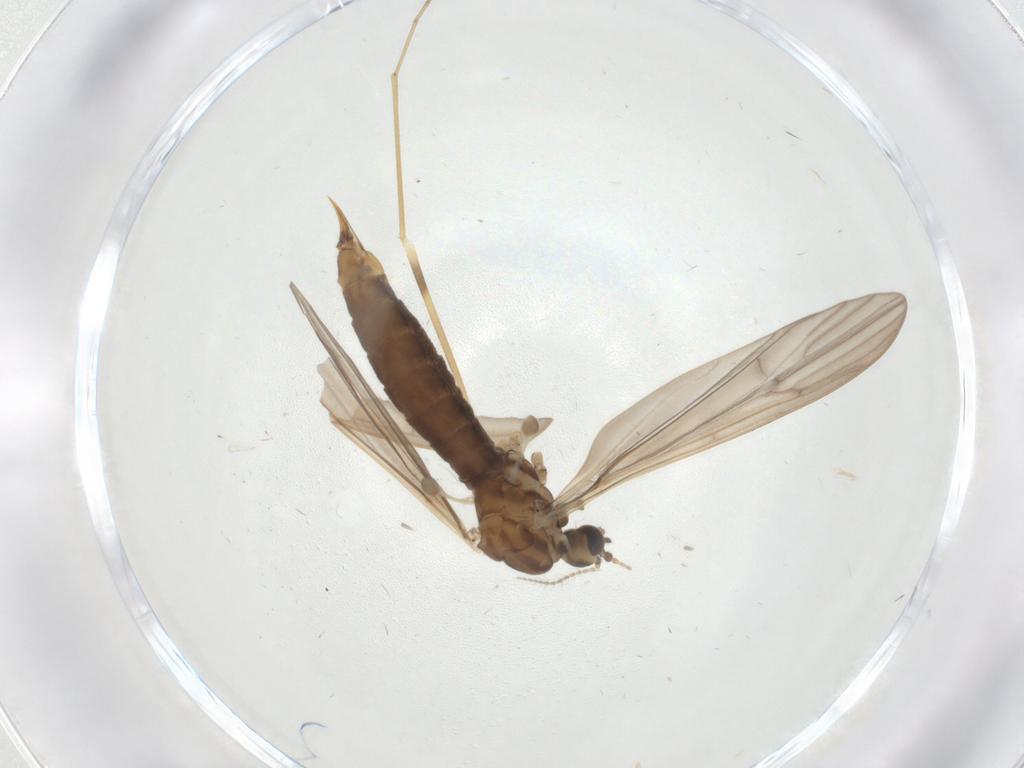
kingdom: Animalia
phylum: Arthropoda
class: Insecta
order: Diptera
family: Limoniidae
